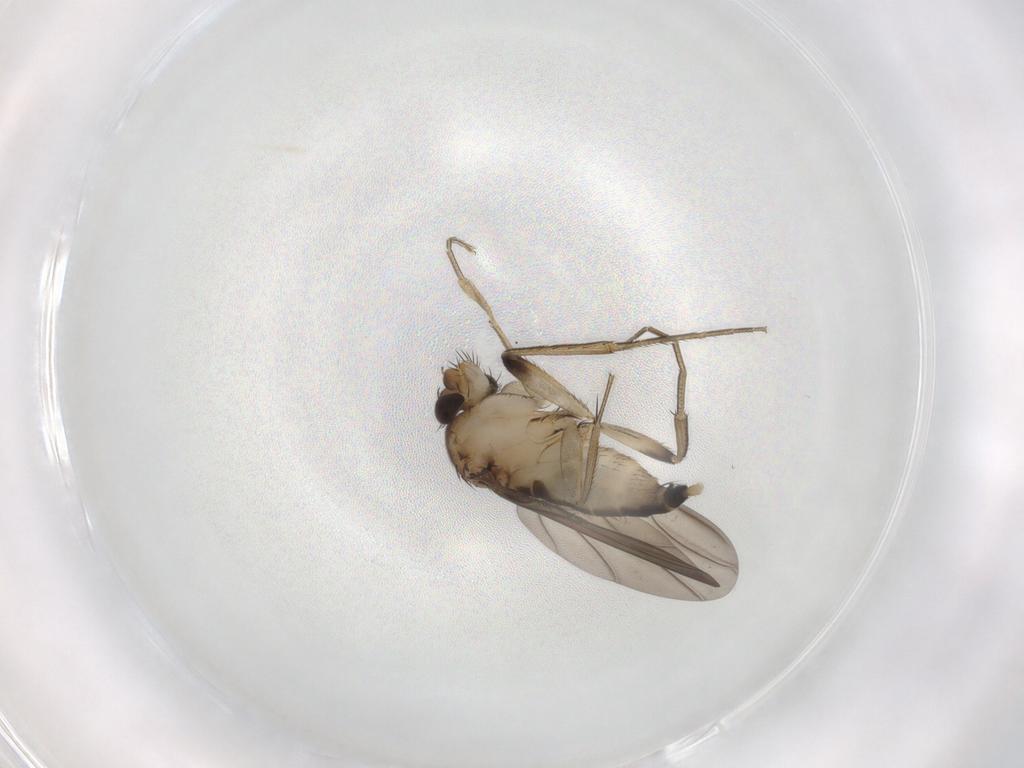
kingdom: Animalia
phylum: Arthropoda
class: Insecta
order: Diptera
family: Phoridae
